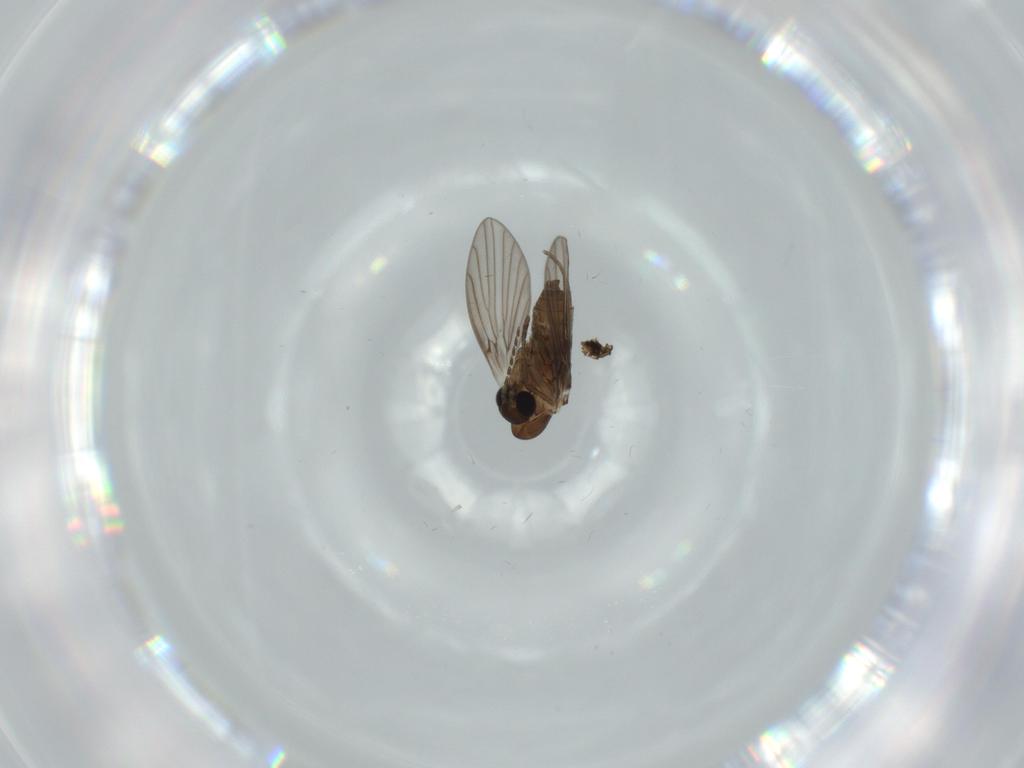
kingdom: Animalia
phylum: Arthropoda
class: Insecta
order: Diptera
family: Psychodidae
